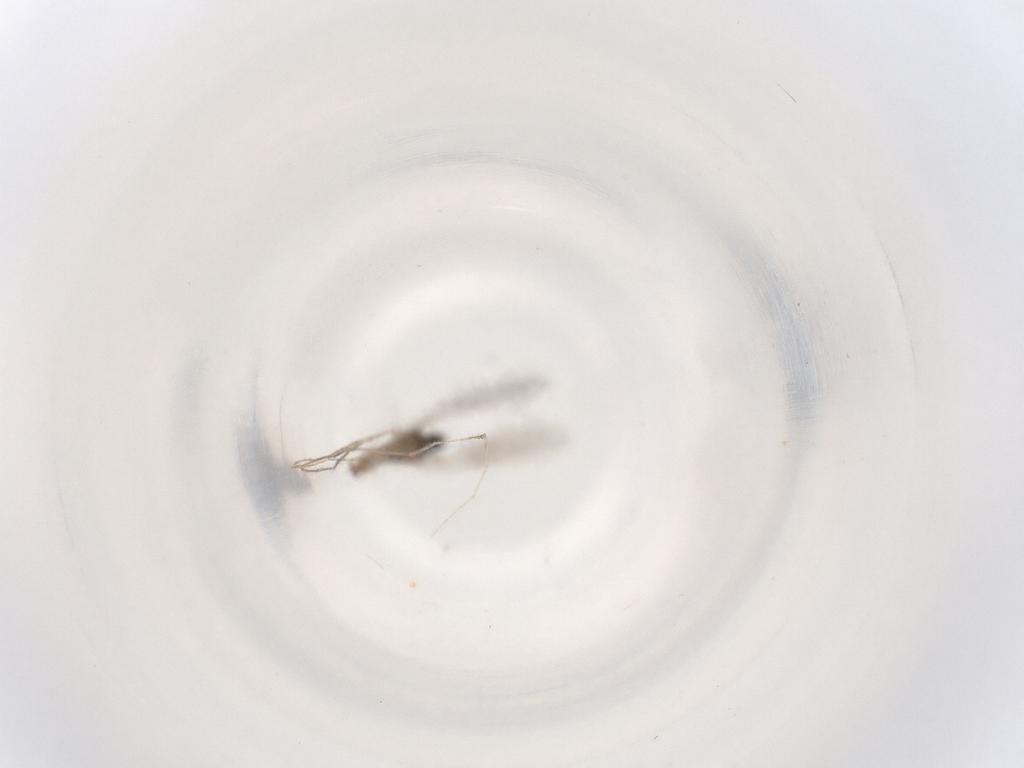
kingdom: Animalia
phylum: Arthropoda
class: Insecta
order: Diptera
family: Cecidomyiidae
